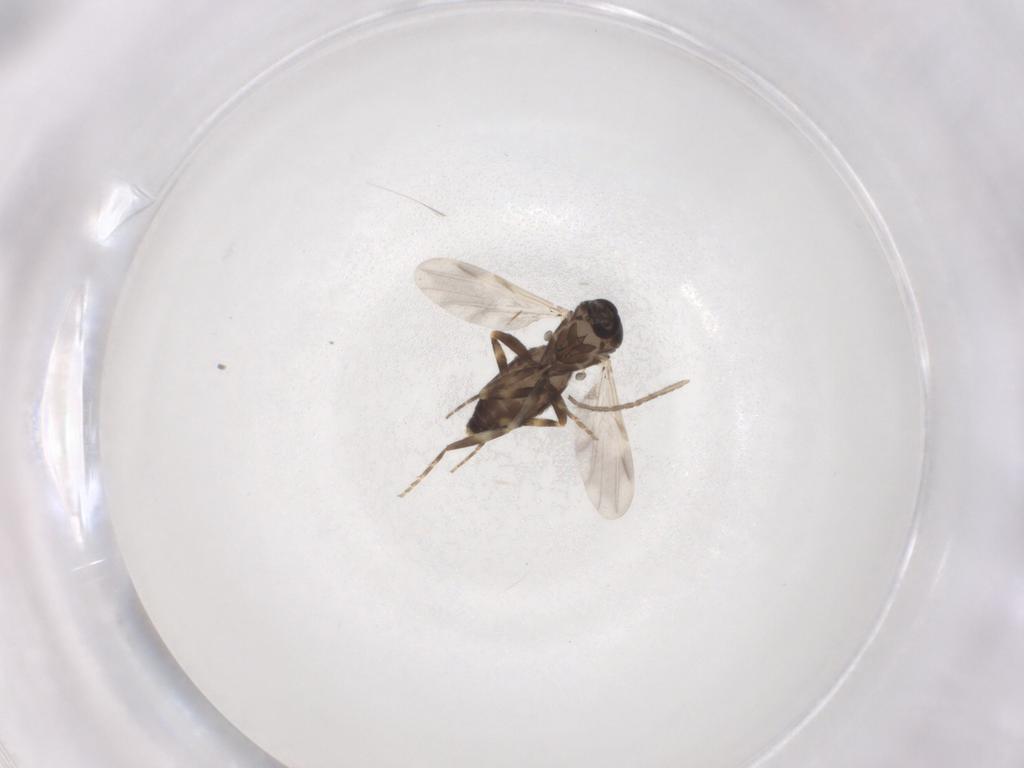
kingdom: Animalia
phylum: Arthropoda
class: Insecta
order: Diptera
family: Ceratopogonidae
